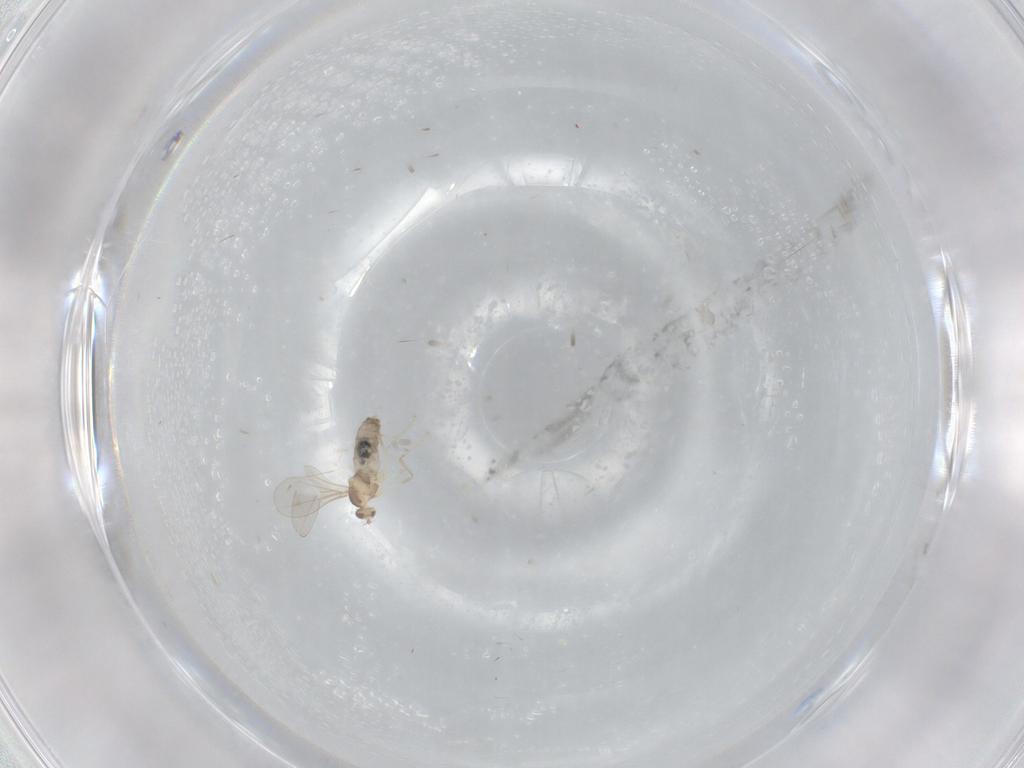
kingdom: Animalia
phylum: Arthropoda
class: Insecta
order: Diptera
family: Cecidomyiidae
